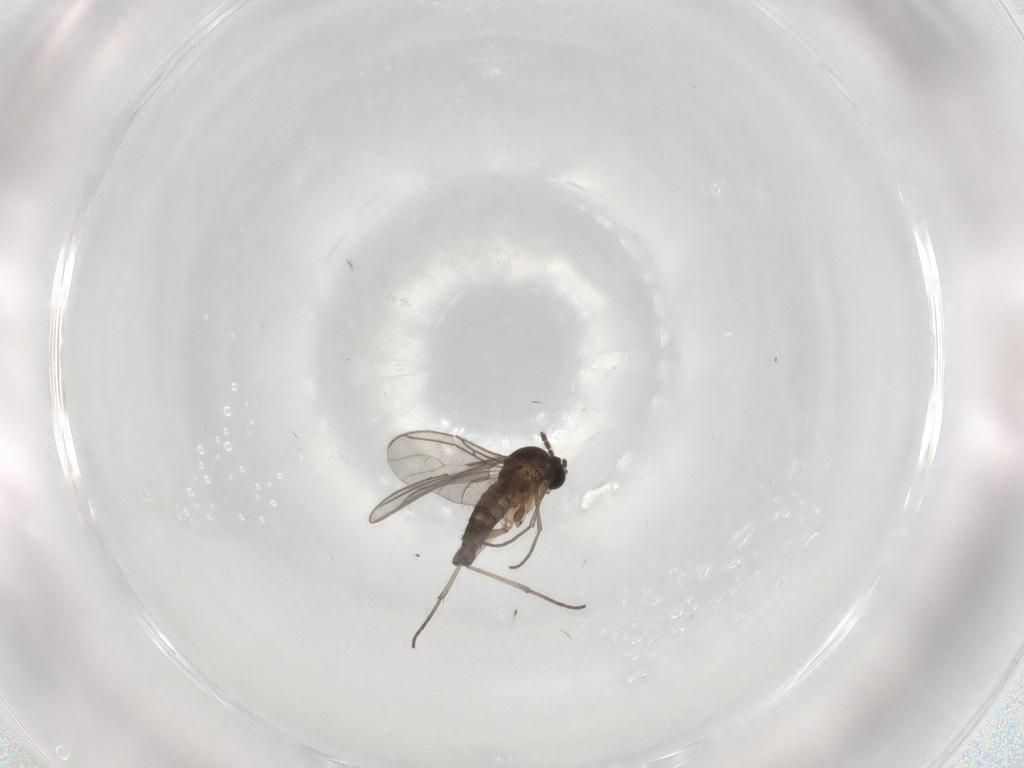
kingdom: Animalia
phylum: Arthropoda
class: Insecta
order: Diptera
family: Sciaridae
